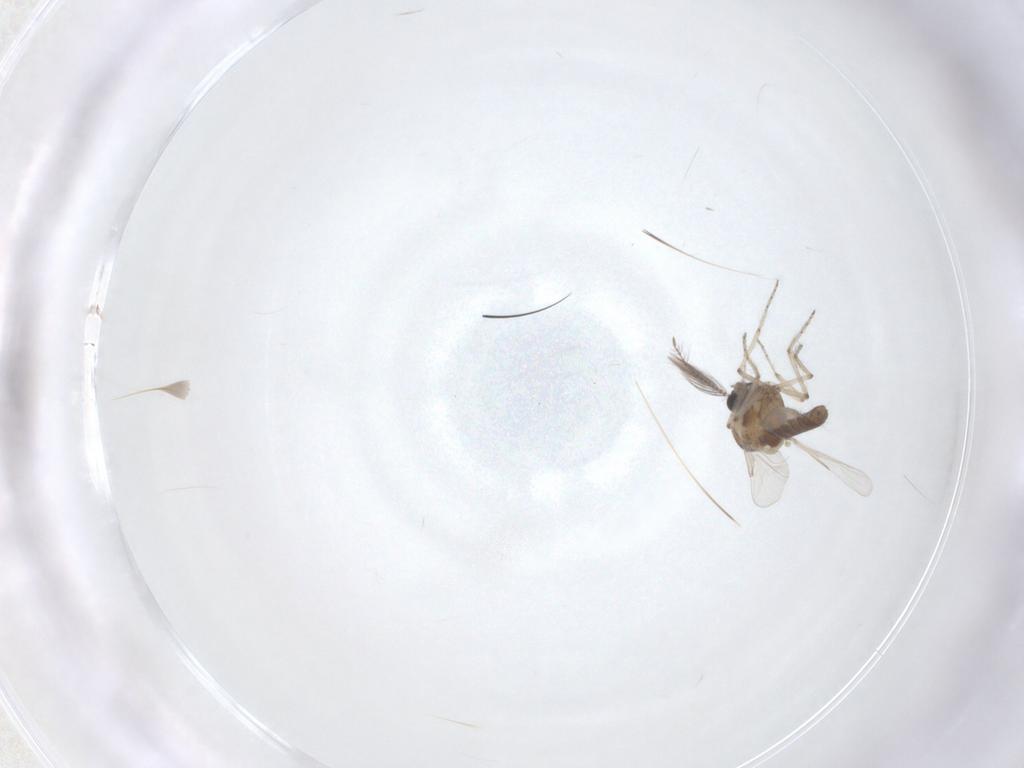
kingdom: Animalia
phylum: Arthropoda
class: Insecta
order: Diptera
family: Ceratopogonidae
